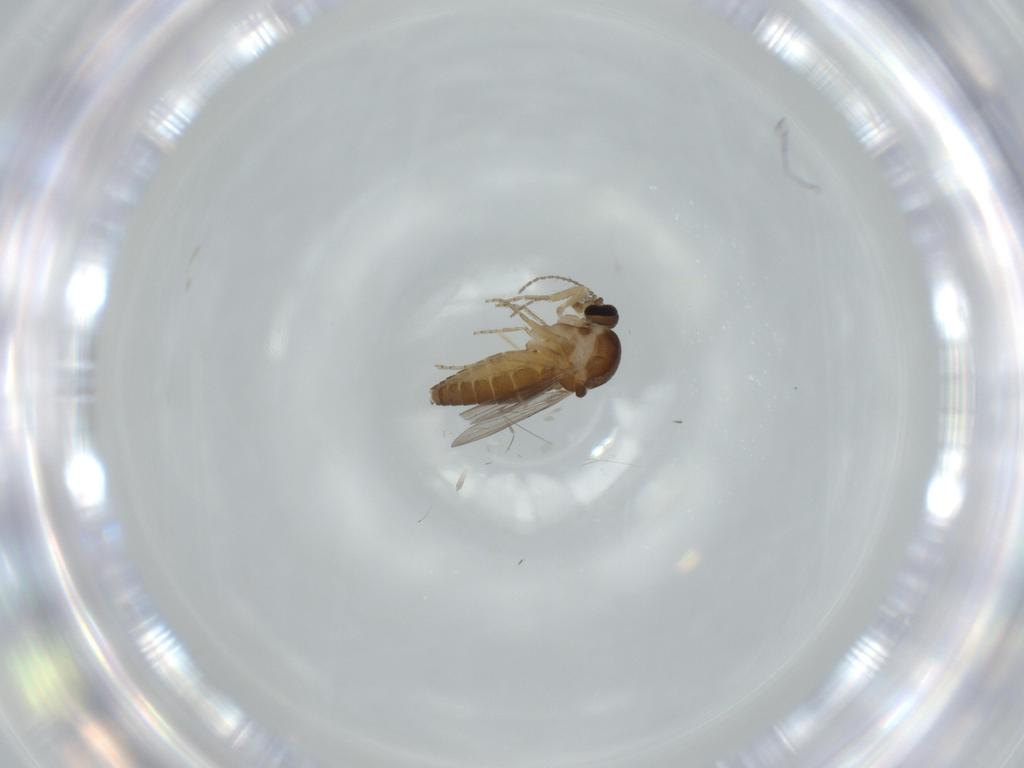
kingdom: Animalia
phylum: Arthropoda
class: Insecta
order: Diptera
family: Ceratopogonidae
